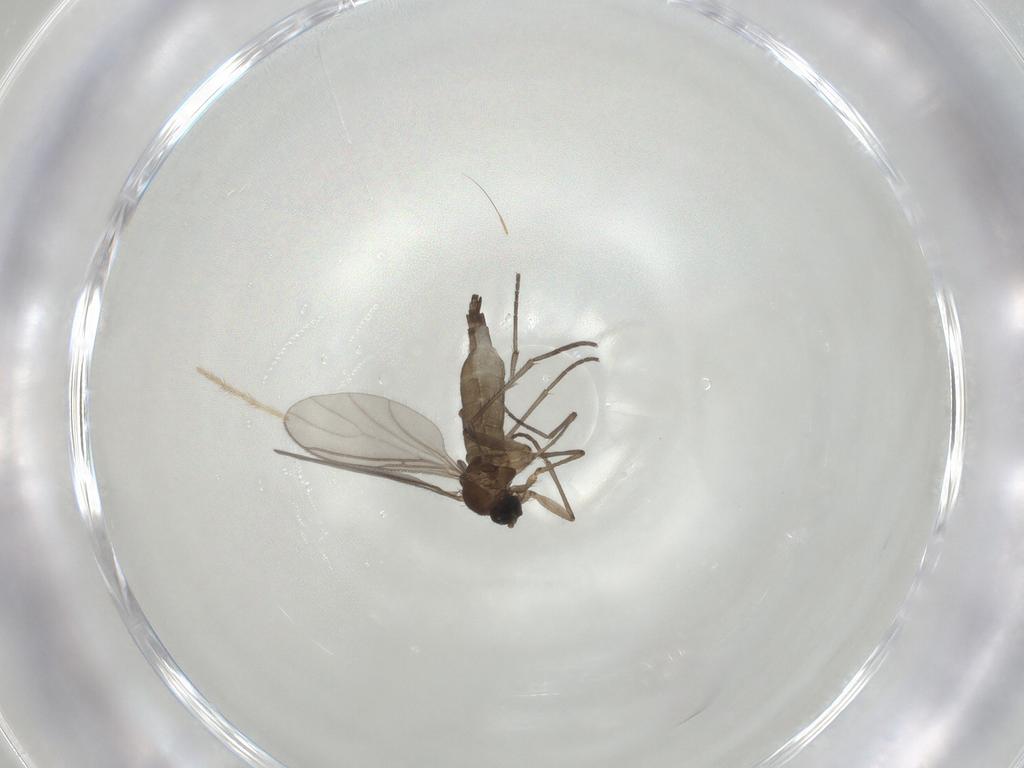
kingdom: Animalia
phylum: Arthropoda
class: Insecta
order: Diptera
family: Chironomidae
